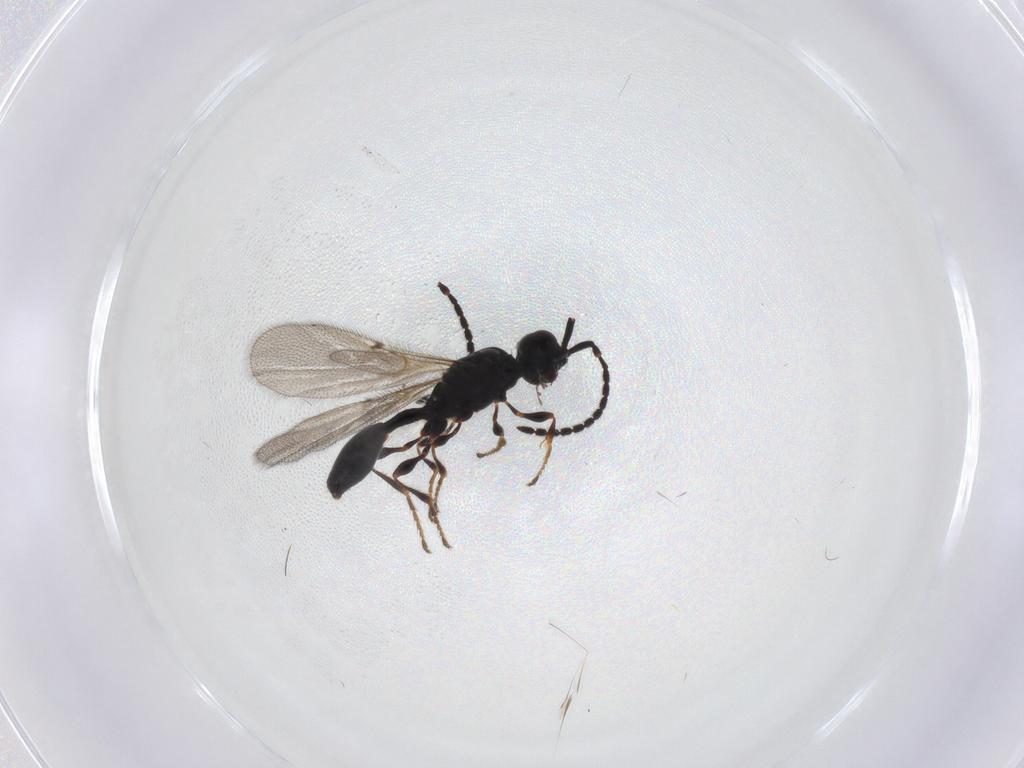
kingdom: Animalia
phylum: Arthropoda
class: Insecta
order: Hymenoptera
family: Diapriidae
